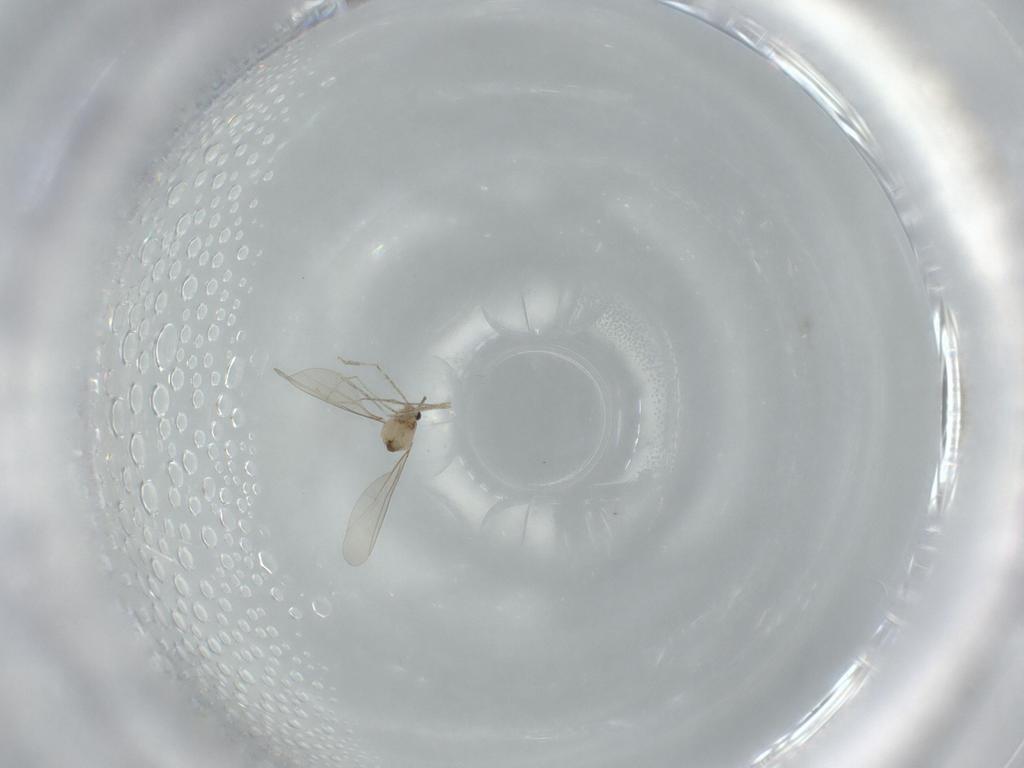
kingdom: Animalia
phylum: Arthropoda
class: Insecta
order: Diptera
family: Cecidomyiidae
